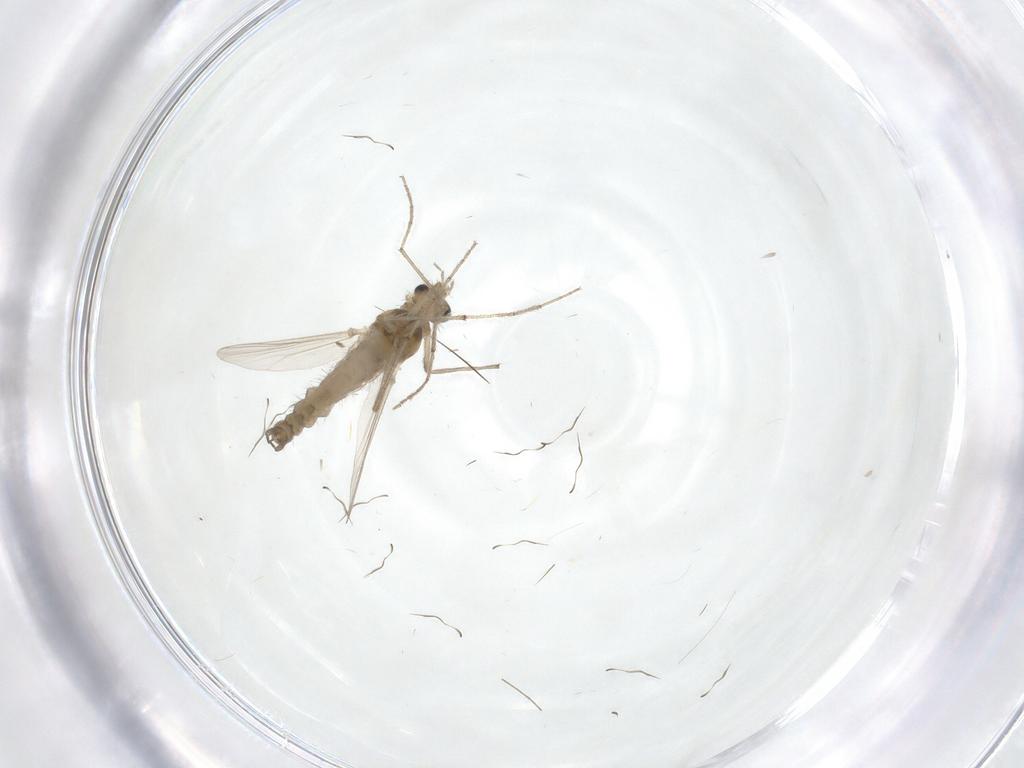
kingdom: Animalia
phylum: Arthropoda
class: Insecta
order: Diptera
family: Chironomidae
